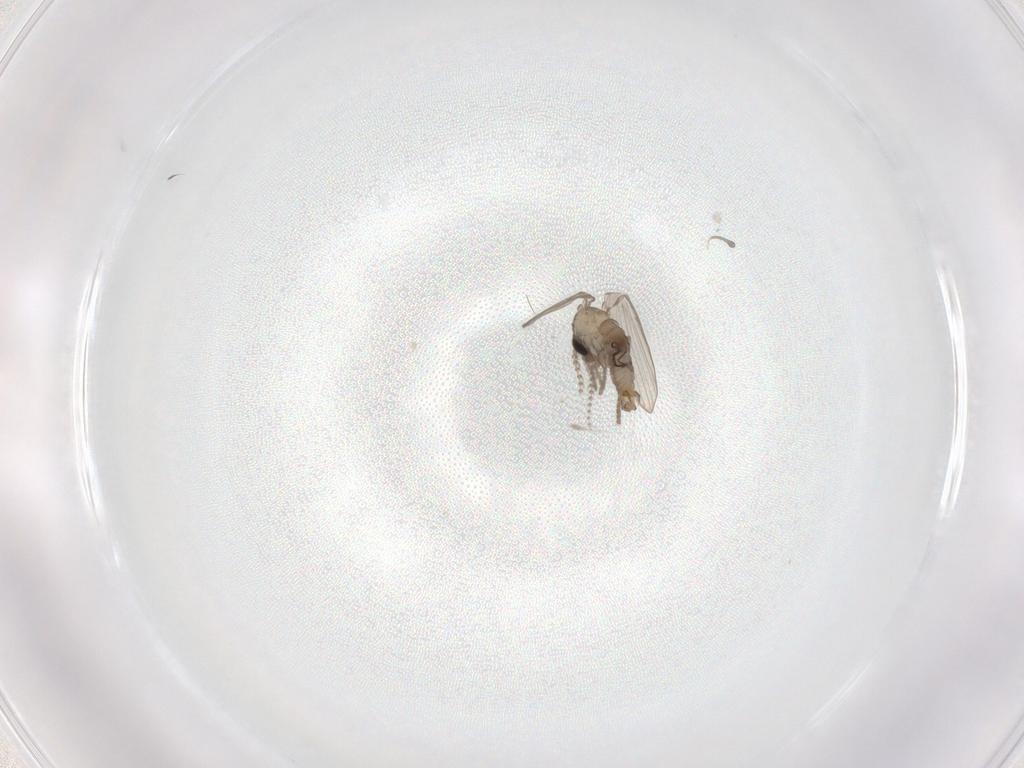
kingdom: Animalia
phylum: Arthropoda
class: Insecta
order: Diptera
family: Psychodidae
